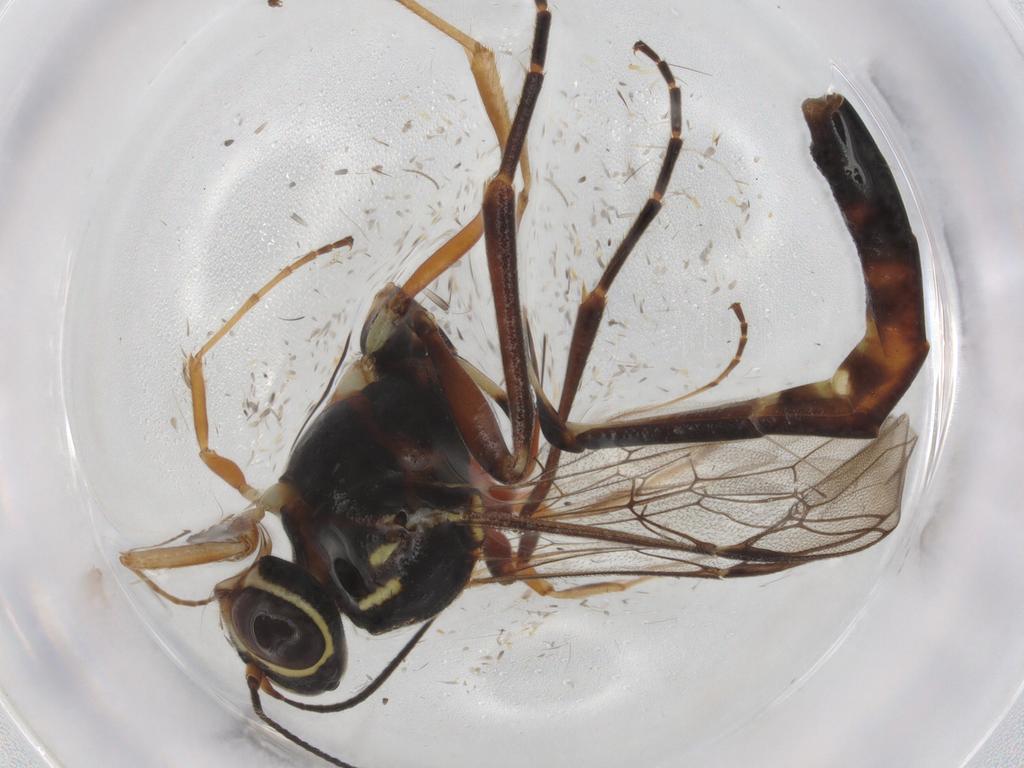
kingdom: Animalia
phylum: Arthropoda
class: Insecta
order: Hymenoptera
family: Ichneumonidae
